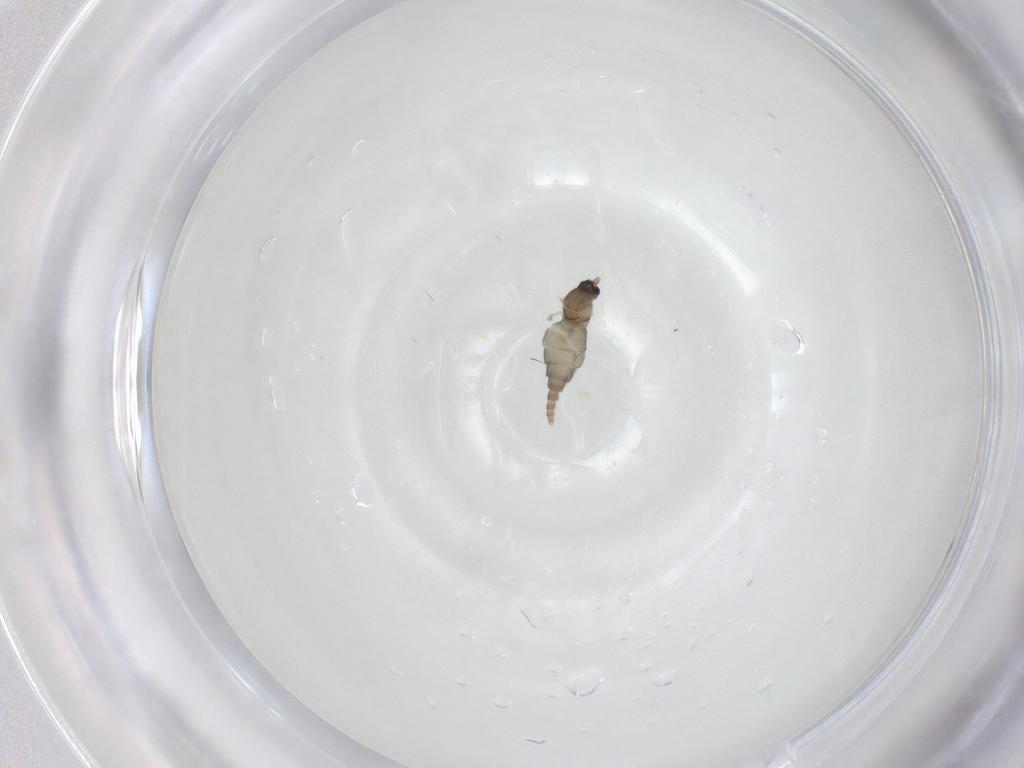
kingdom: Animalia
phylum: Arthropoda
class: Insecta
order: Diptera
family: Cecidomyiidae
